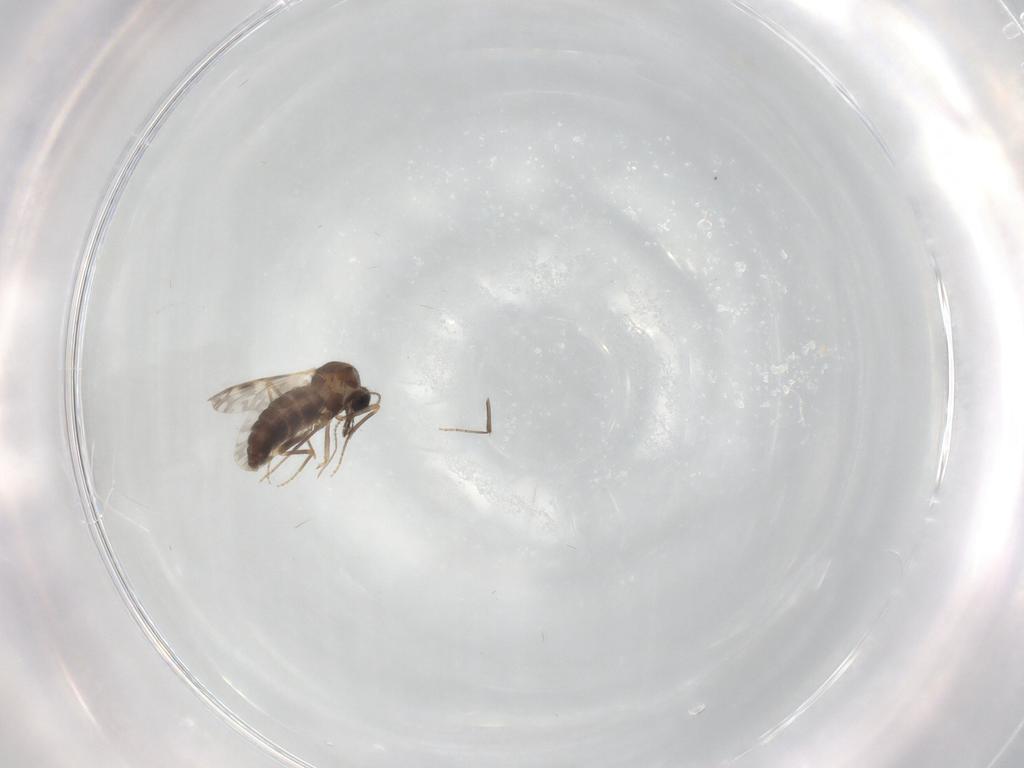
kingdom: Animalia
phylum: Arthropoda
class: Insecta
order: Diptera
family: Ceratopogonidae
